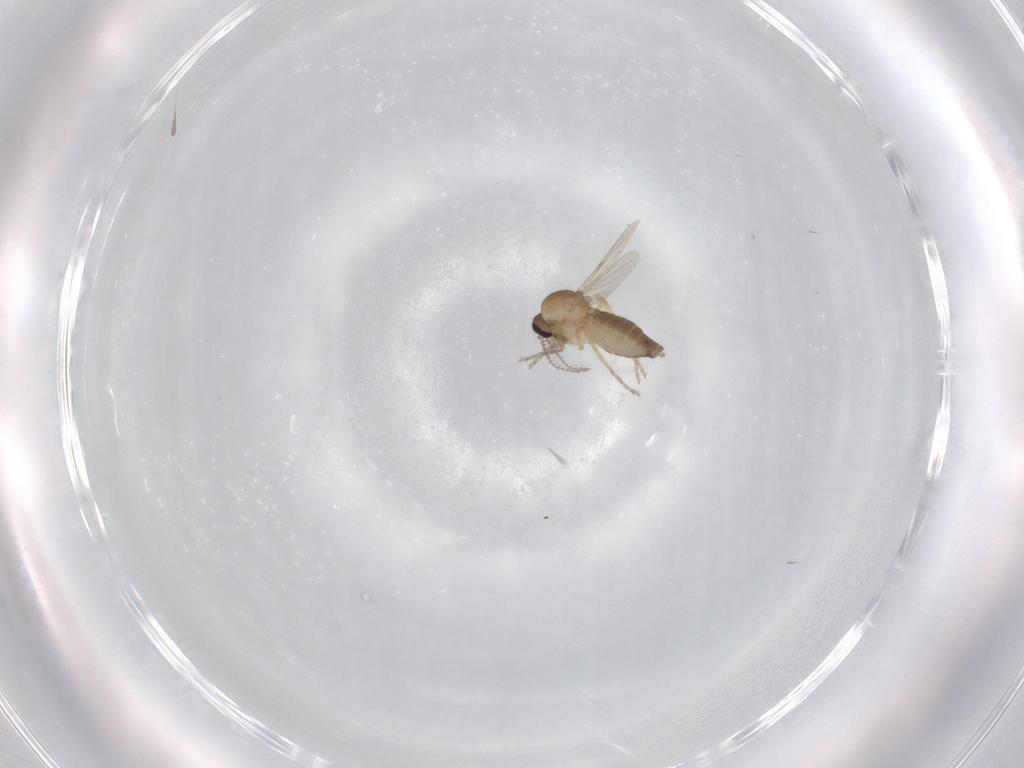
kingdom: Animalia
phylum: Arthropoda
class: Insecta
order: Diptera
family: Ceratopogonidae
